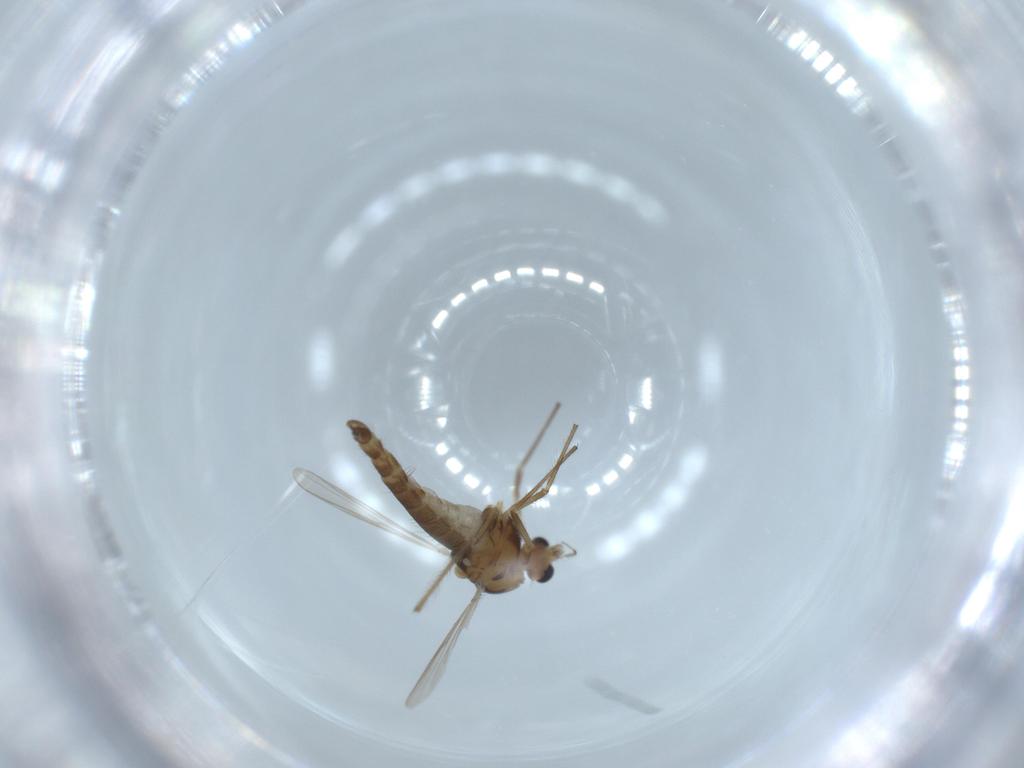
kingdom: Animalia
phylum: Arthropoda
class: Insecta
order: Diptera
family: Chironomidae
